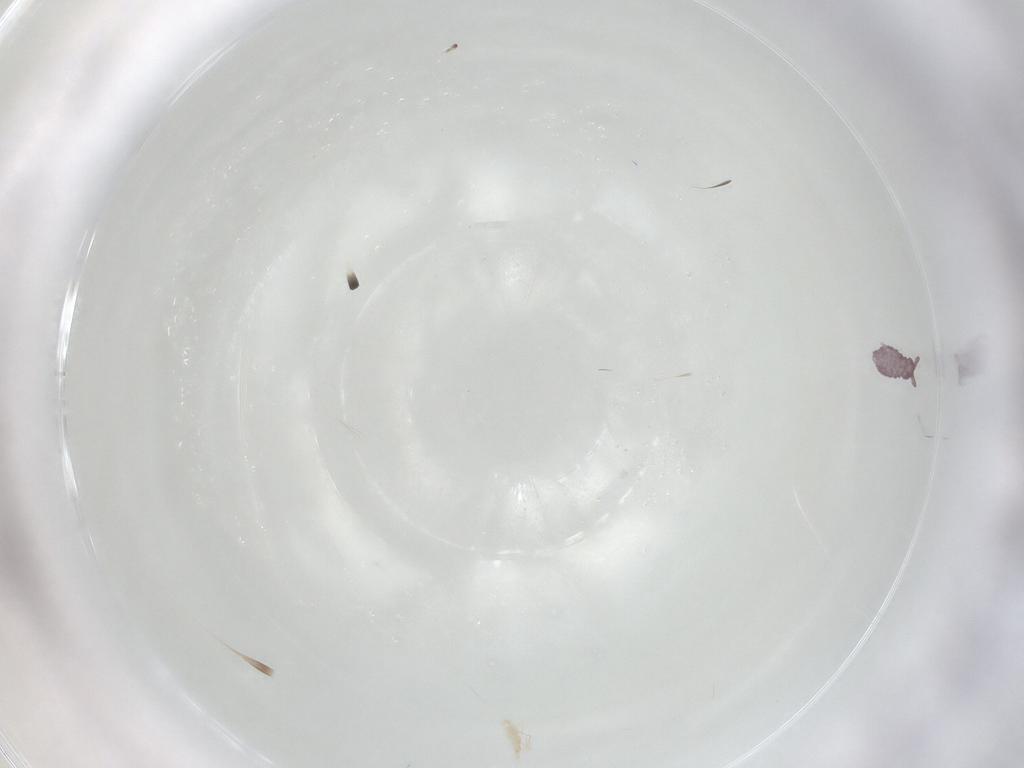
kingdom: Animalia
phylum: Arthropoda
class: Collembola
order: Poduromorpha
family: Hypogastruridae
